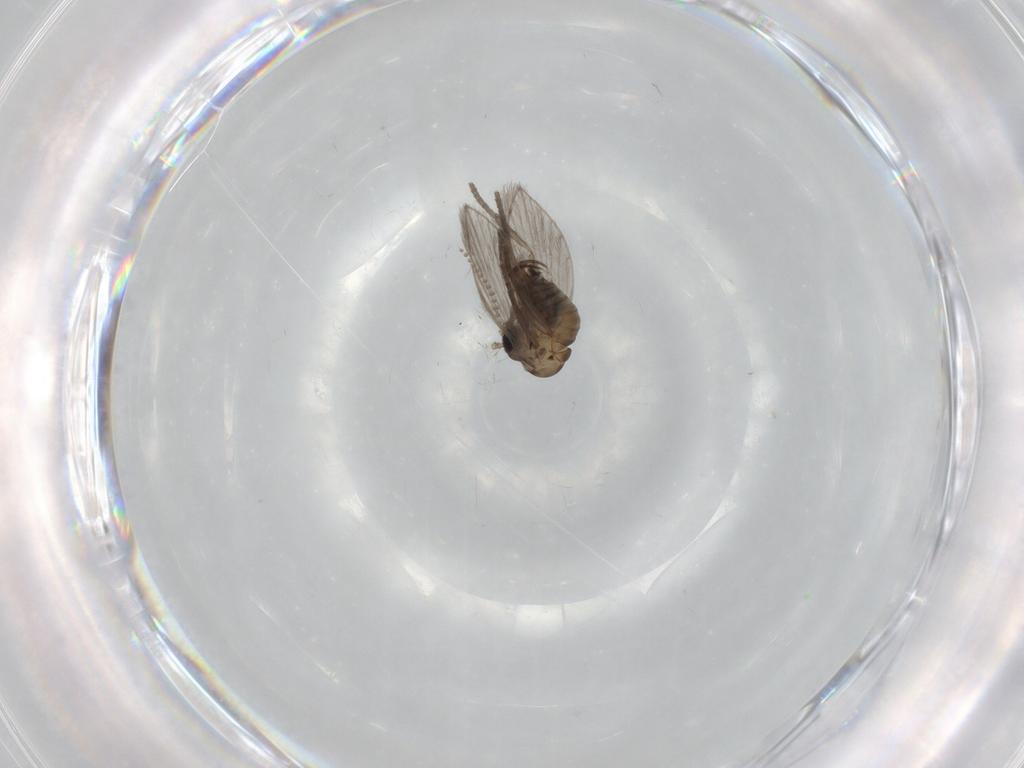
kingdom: Animalia
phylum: Arthropoda
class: Insecta
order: Diptera
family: Psychodidae
